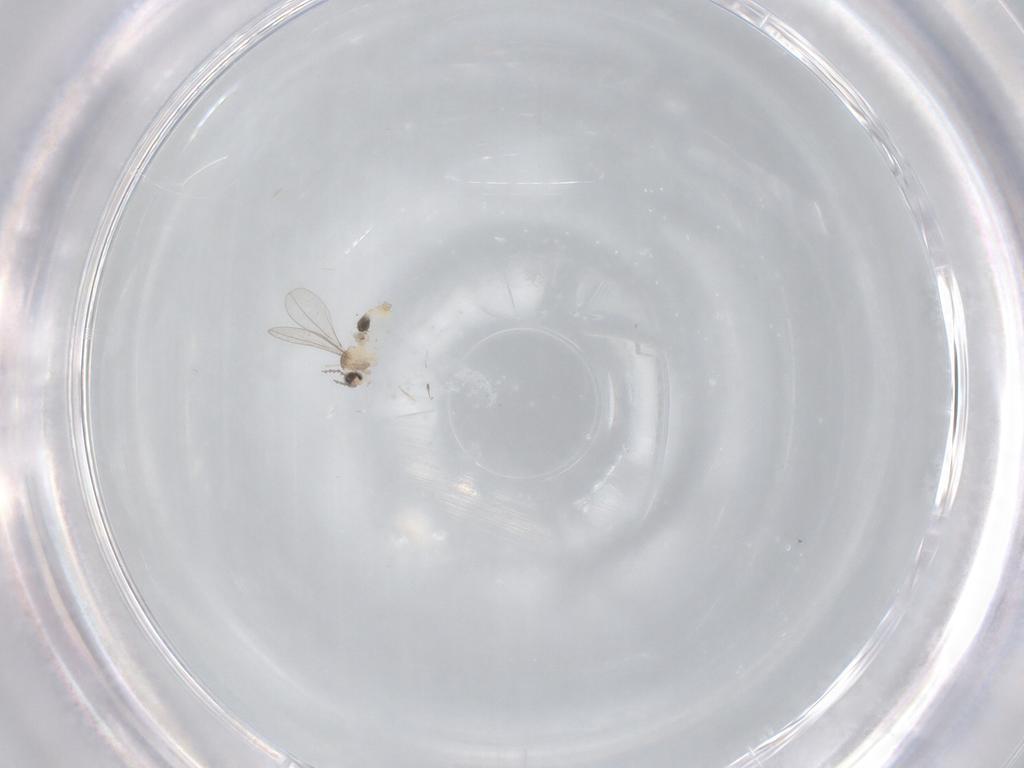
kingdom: Animalia
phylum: Arthropoda
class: Insecta
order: Diptera
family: Cecidomyiidae
